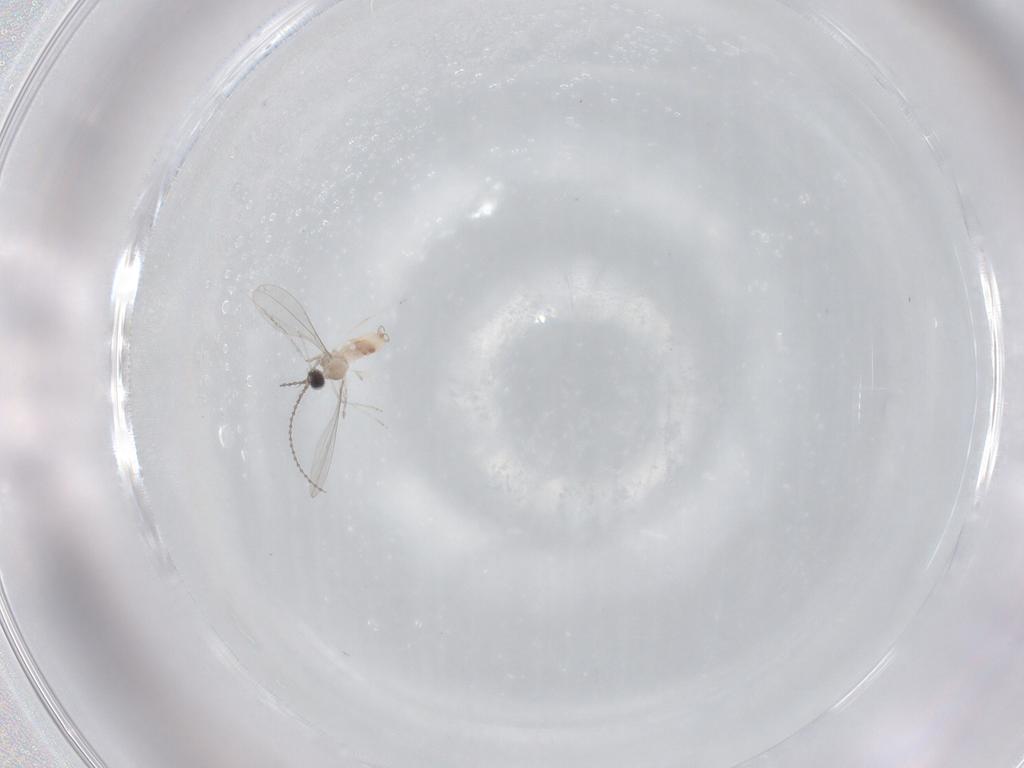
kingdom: Animalia
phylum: Arthropoda
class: Insecta
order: Diptera
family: Cecidomyiidae
